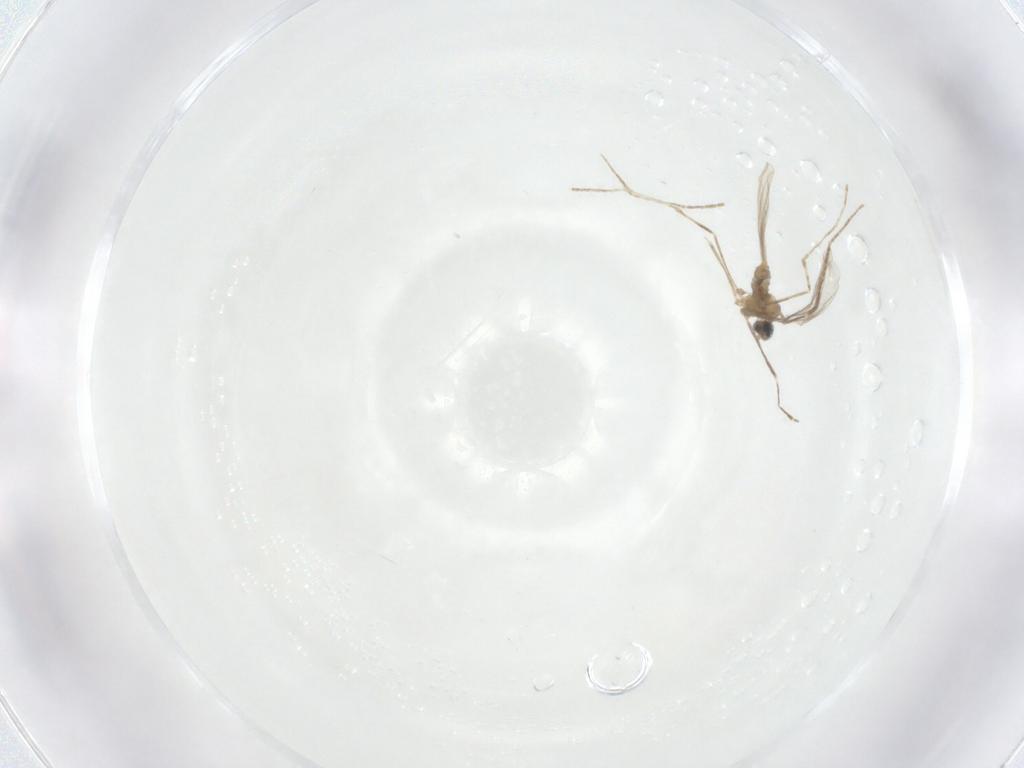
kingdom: Animalia
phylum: Arthropoda
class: Insecta
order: Diptera
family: Cecidomyiidae
